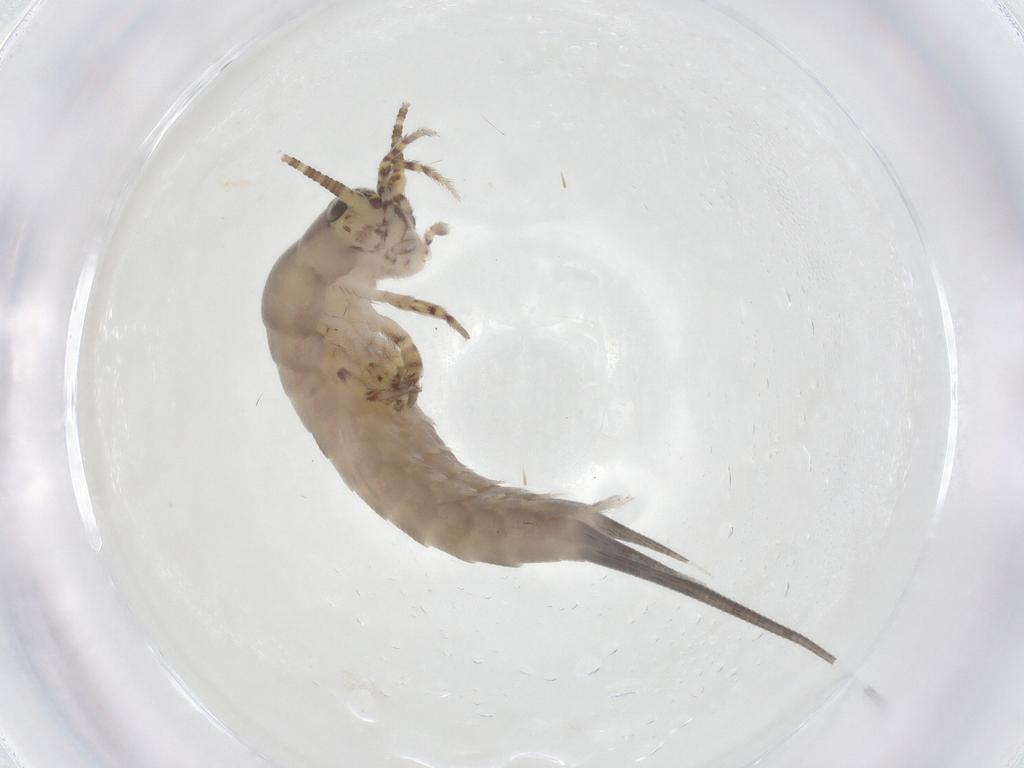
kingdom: Animalia
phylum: Arthropoda
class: Insecta
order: Archaeognatha
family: Meinertellidae
